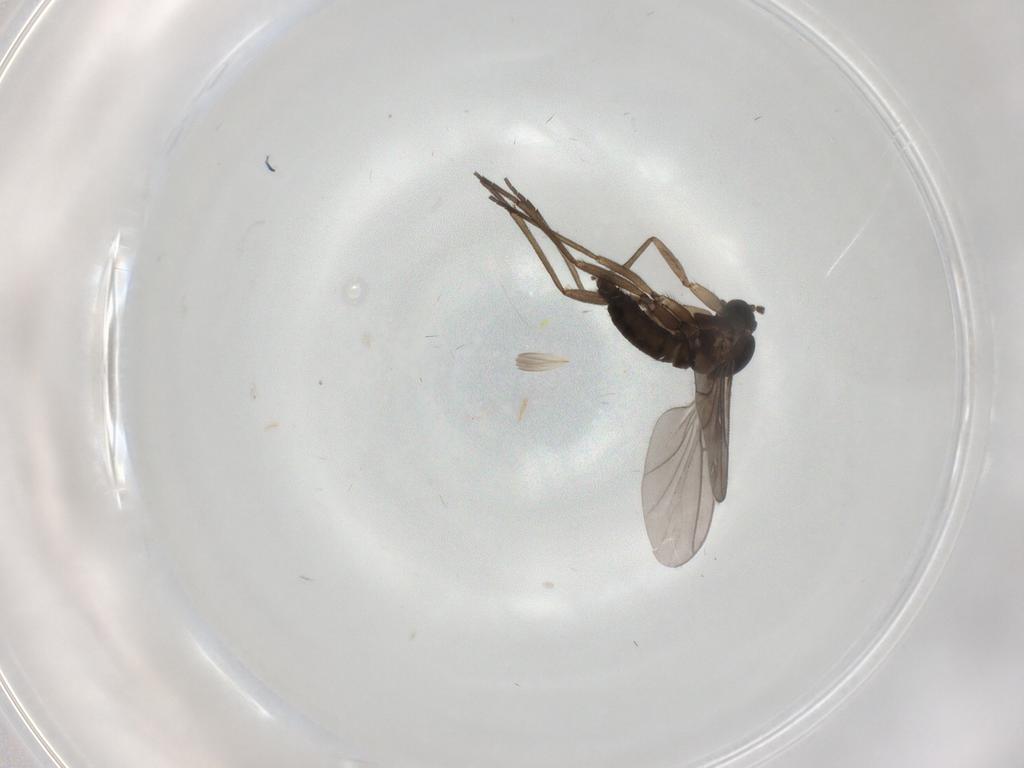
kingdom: Animalia
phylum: Arthropoda
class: Insecta
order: Diptera
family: Sciaridae
